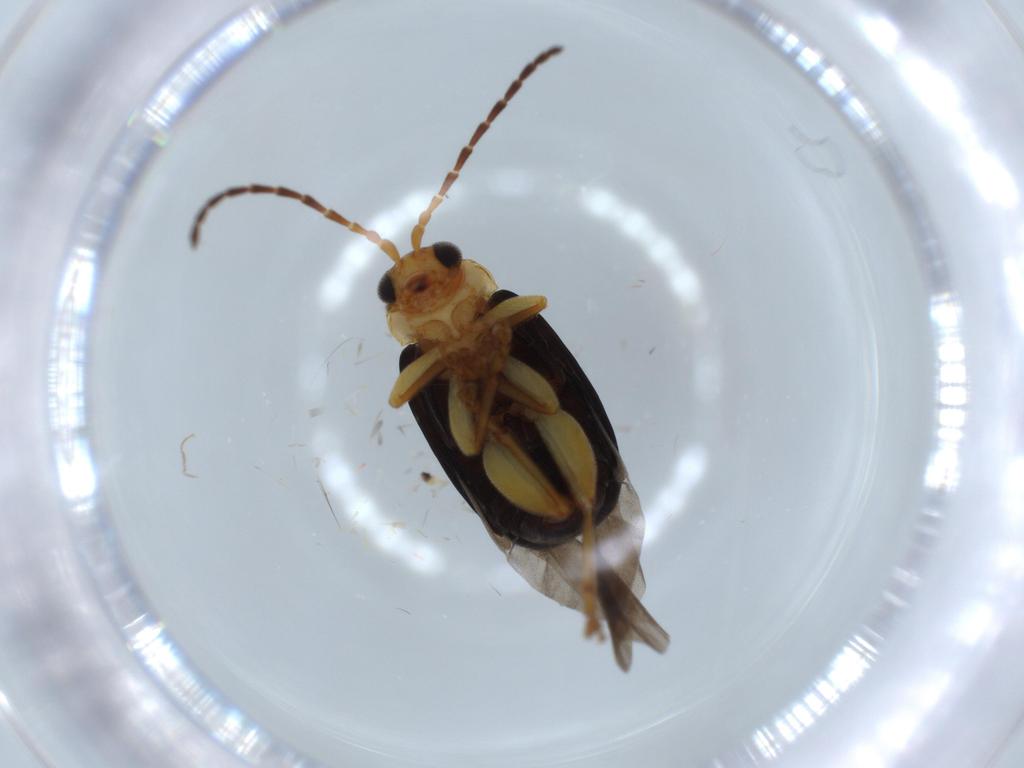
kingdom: Animalia
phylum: Arthropoda
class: Insecta
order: Coleoptera
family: Chrysomelidae
